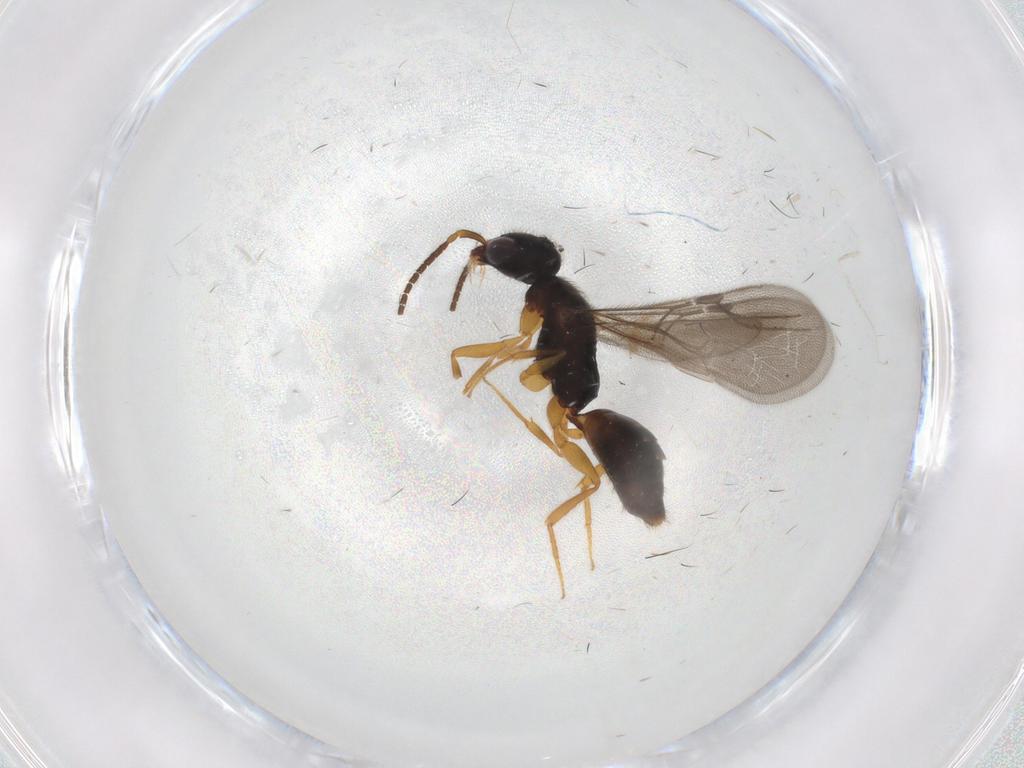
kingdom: Animalia
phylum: Arthropoda
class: Insecta
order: Hymenoptera
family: Bethylidae
